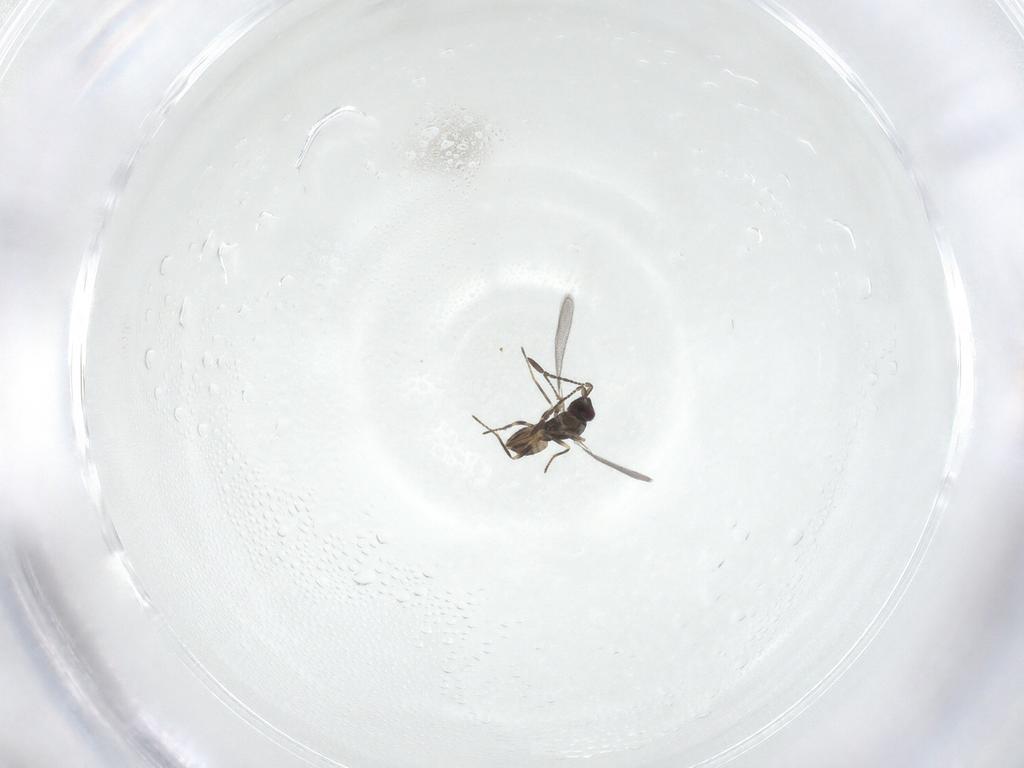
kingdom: Animalia
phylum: Arthropoda
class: Insecta
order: Hymenoptera
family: Mymaridae
